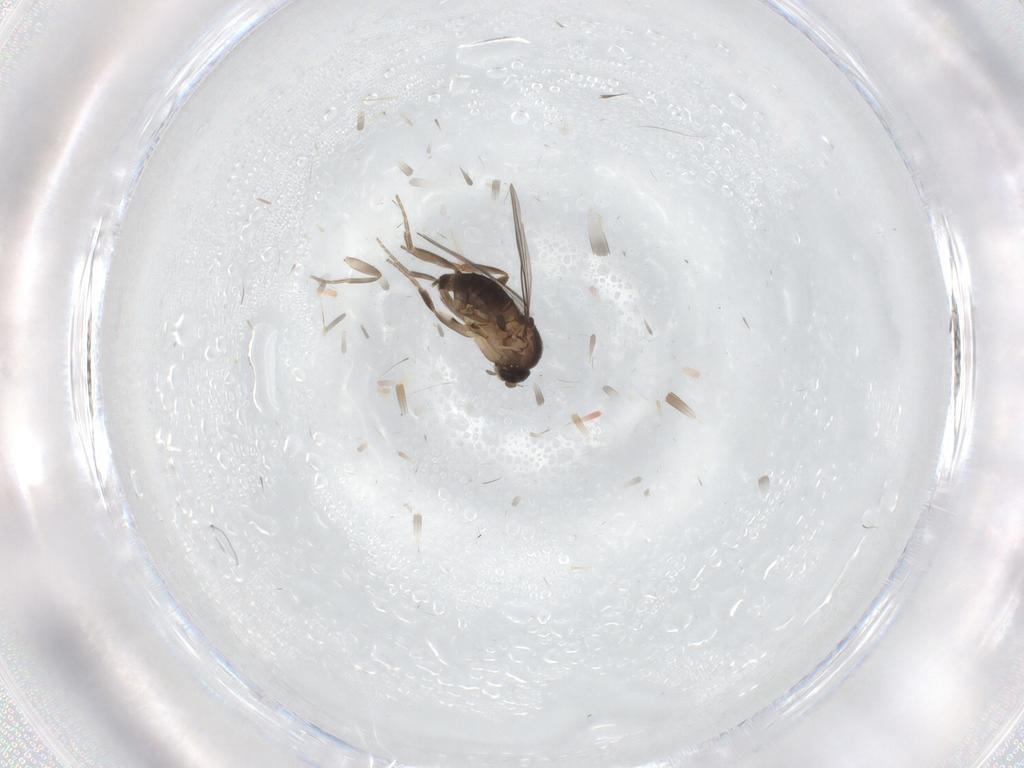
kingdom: Animalia
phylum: Arthropoda
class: Insecta
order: Diptera
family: Phoridae
